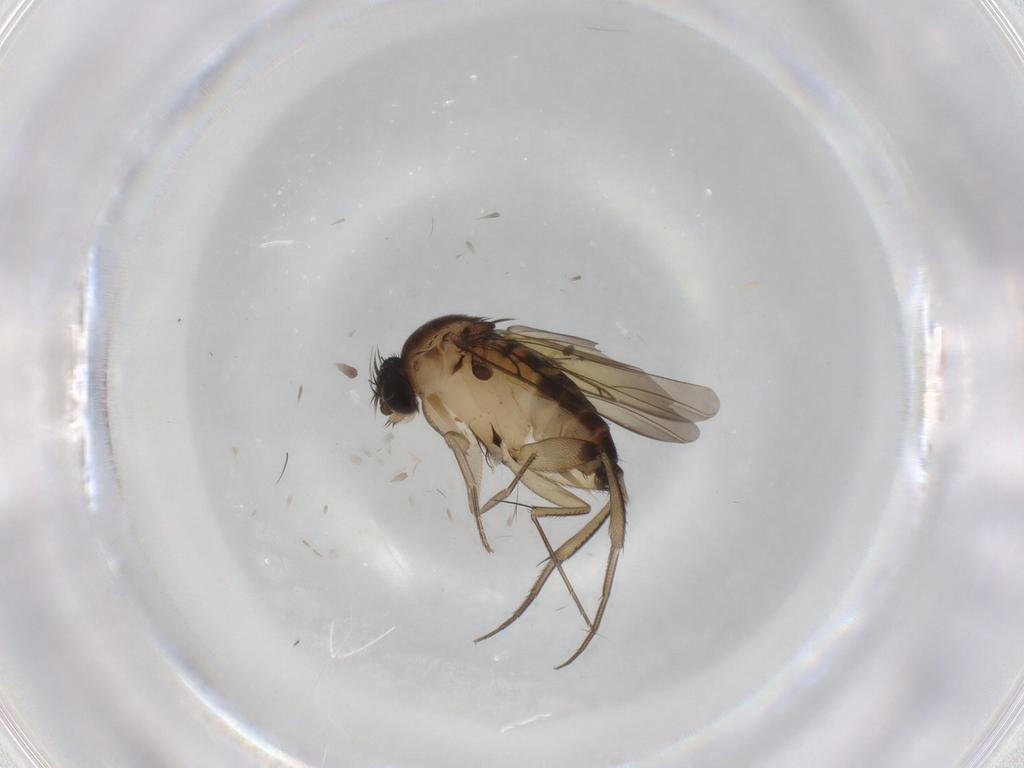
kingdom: Animalia
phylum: Arthropoda
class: Insecta
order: Diptera
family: Phoridae
